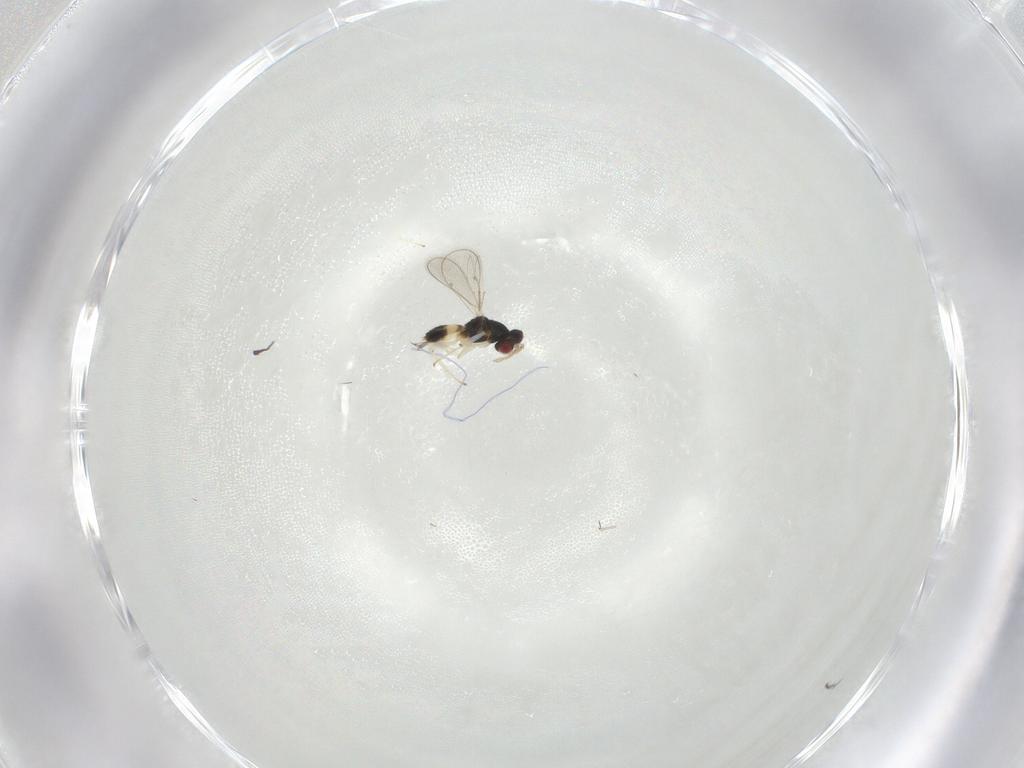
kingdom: Animalia
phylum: Arthropoda
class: Insecta
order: Hymenoptera
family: Eulophidae
